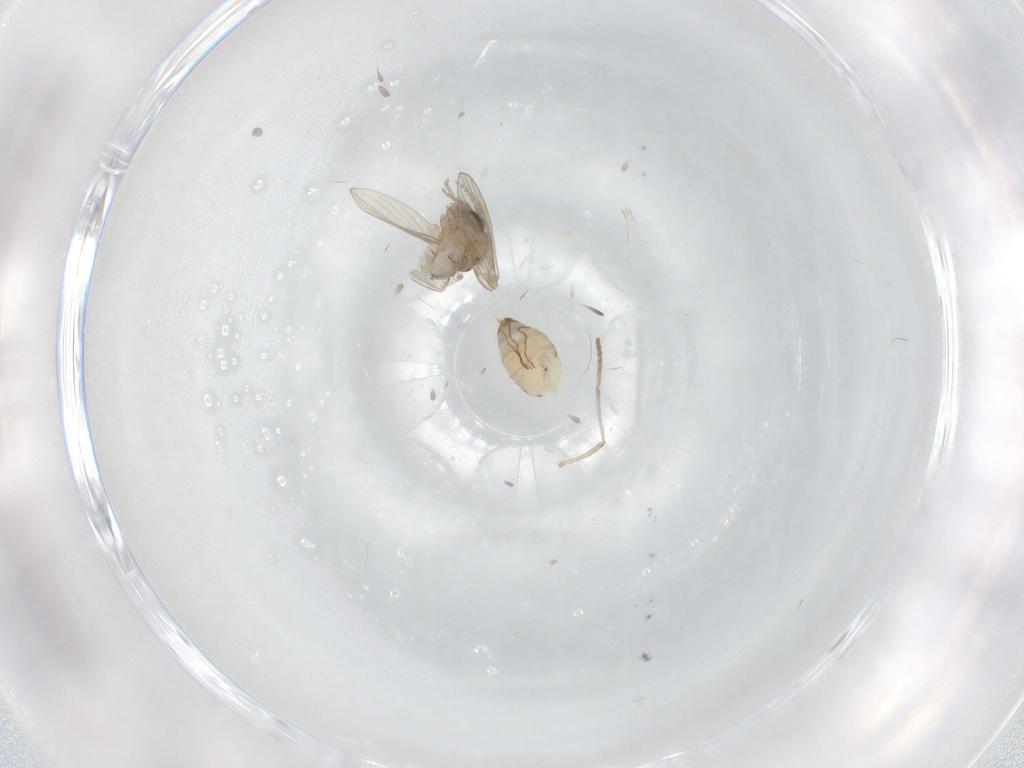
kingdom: Animalia
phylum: Arthropoda
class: Insecta
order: Diptera
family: Psychodidae
